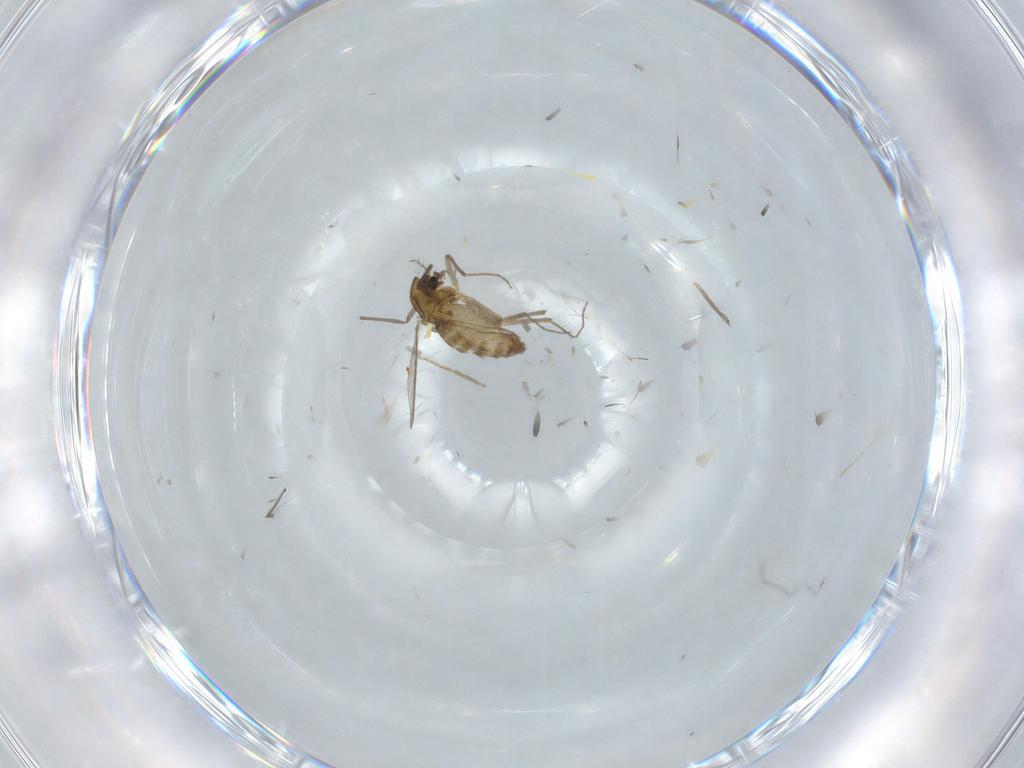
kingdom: Animalia
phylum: Arthropoda
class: Insecta
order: Diptera
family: Chironomidae
